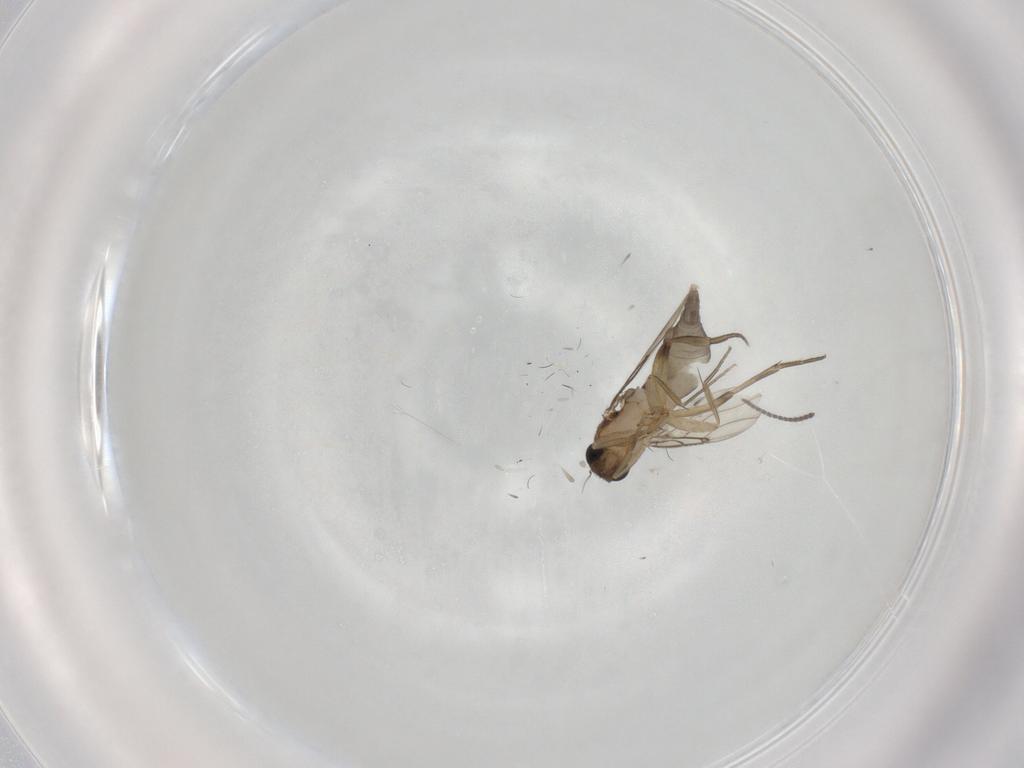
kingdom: Animalia
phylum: Arthropoda
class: Insecta
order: Diptera
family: Phoridae
